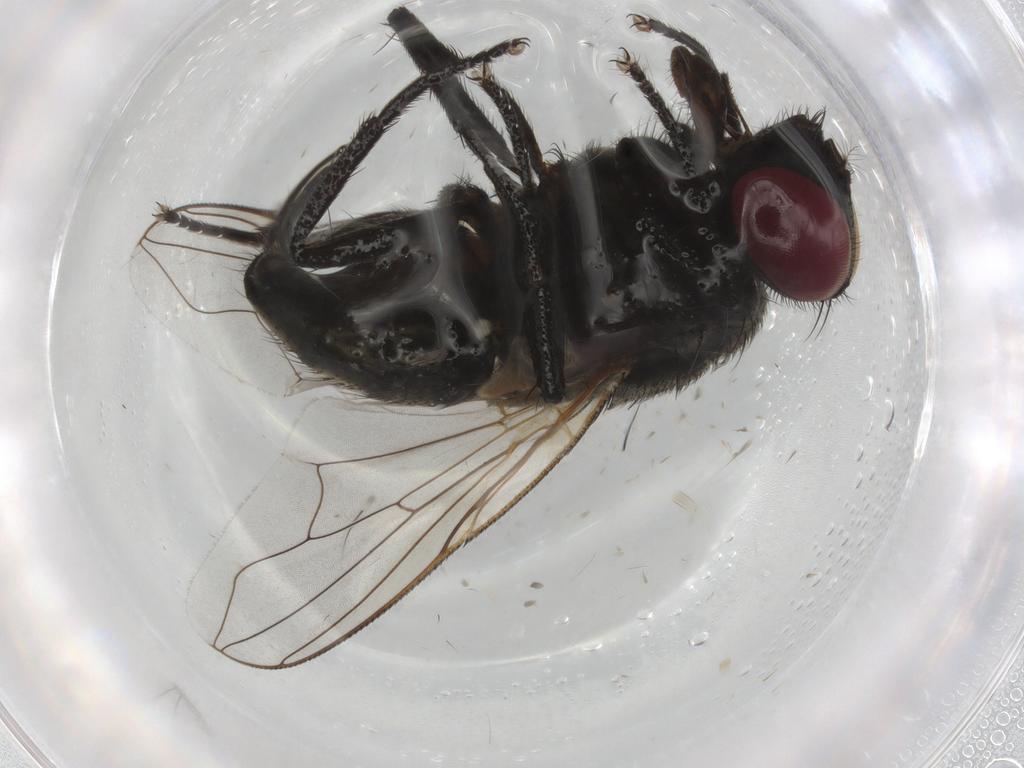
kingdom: Animalia
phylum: Arthropoda
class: Insecta
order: Diptera
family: Muscidae
